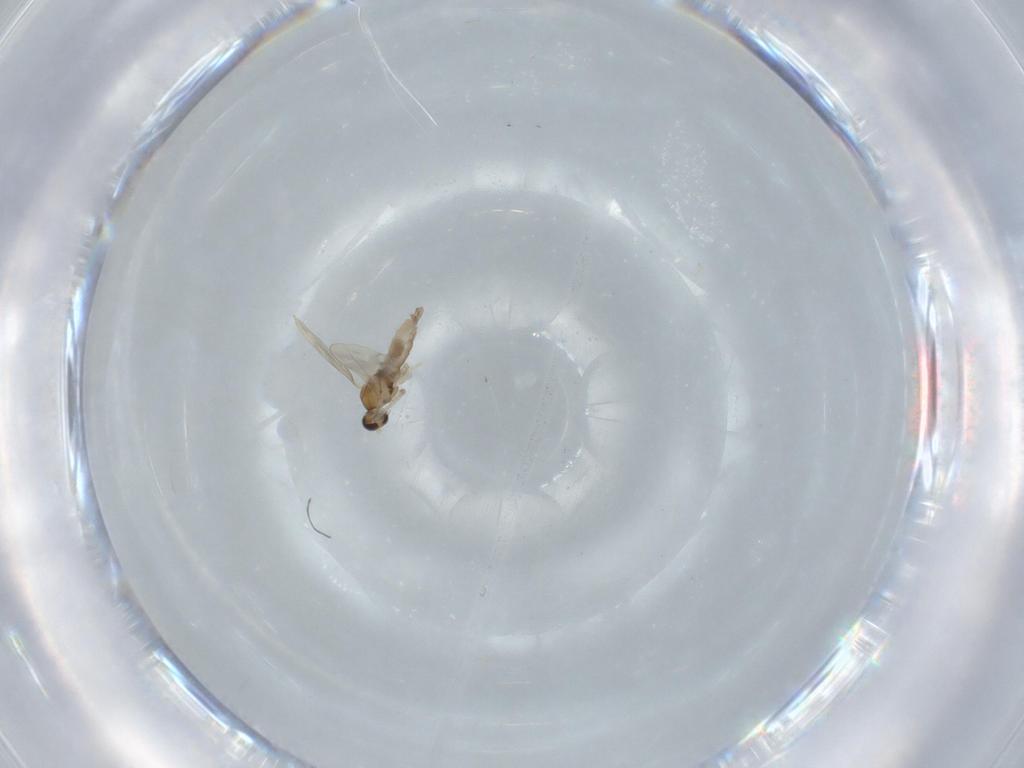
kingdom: Animalia
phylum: Arthropoda
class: Insecta
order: Diptera
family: Cecidomyiidae
